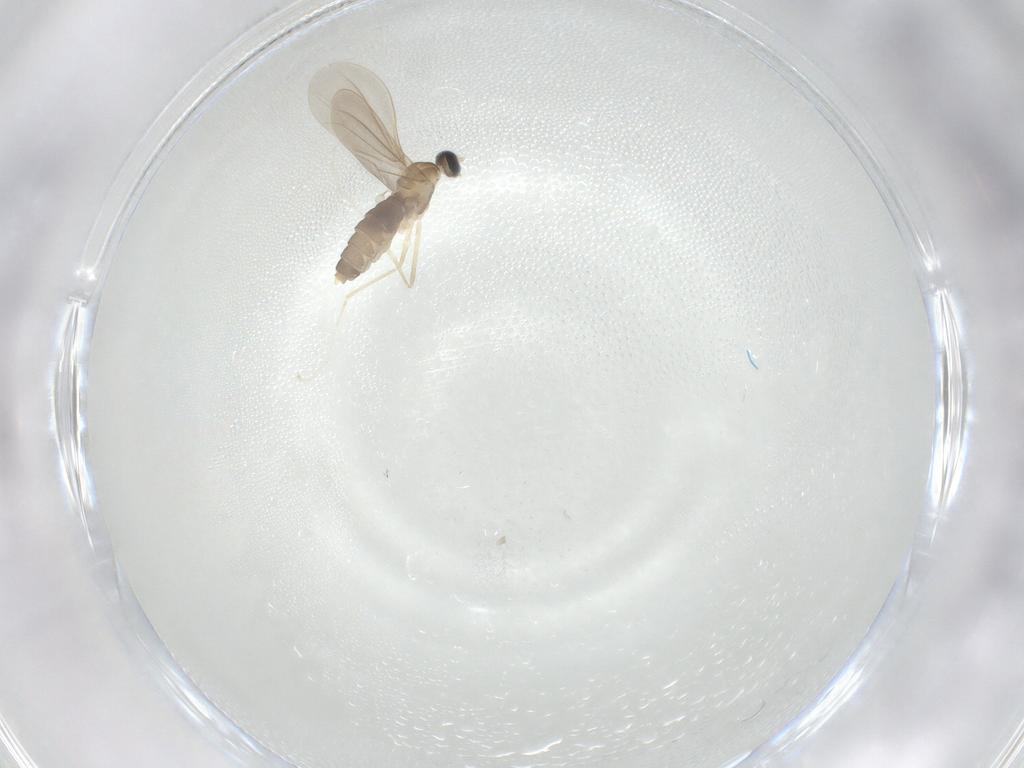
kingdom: Animalia
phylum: Arthropoda
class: Insecta
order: Diptera
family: Cecidomyiidae
